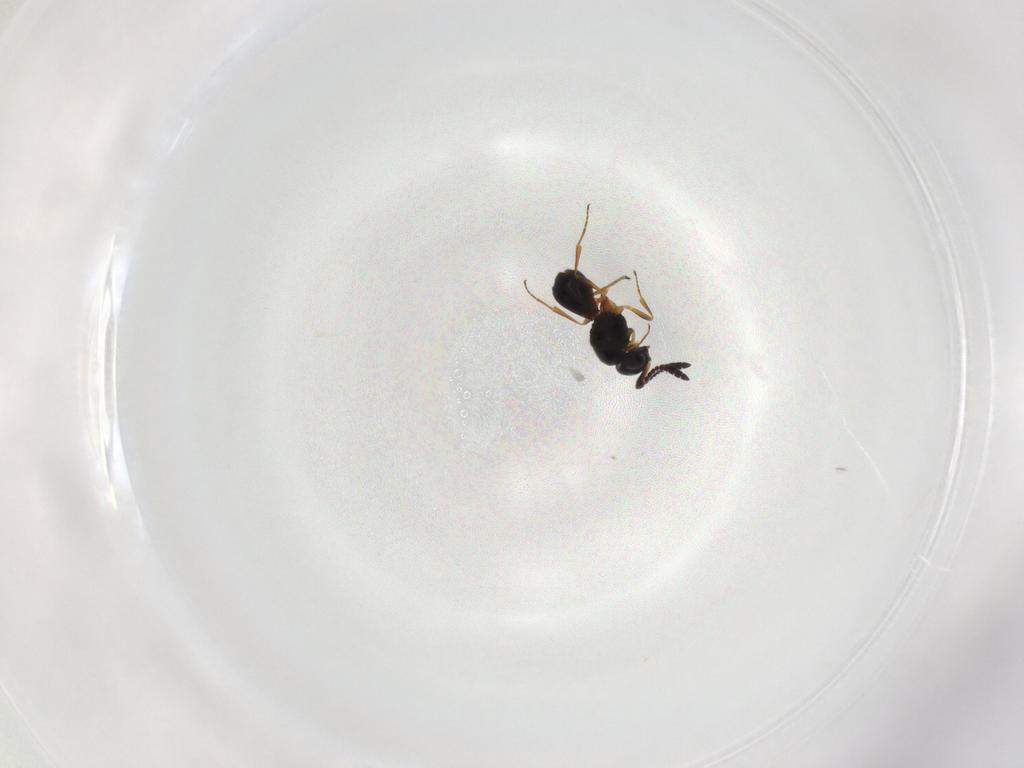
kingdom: Animalia
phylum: Arthropoda
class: Insecta
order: Hymenoptera
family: Scelionidae
